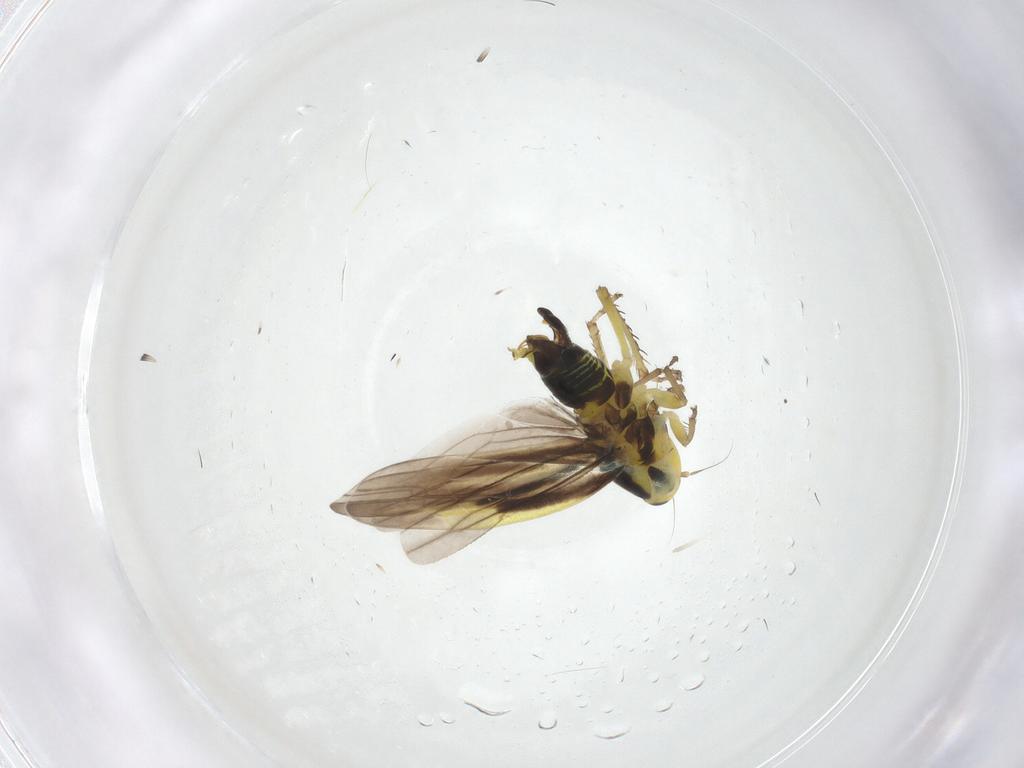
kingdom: Animalia
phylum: Arthropoda
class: Insecta
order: Hemiptera
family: Cicadellidae
